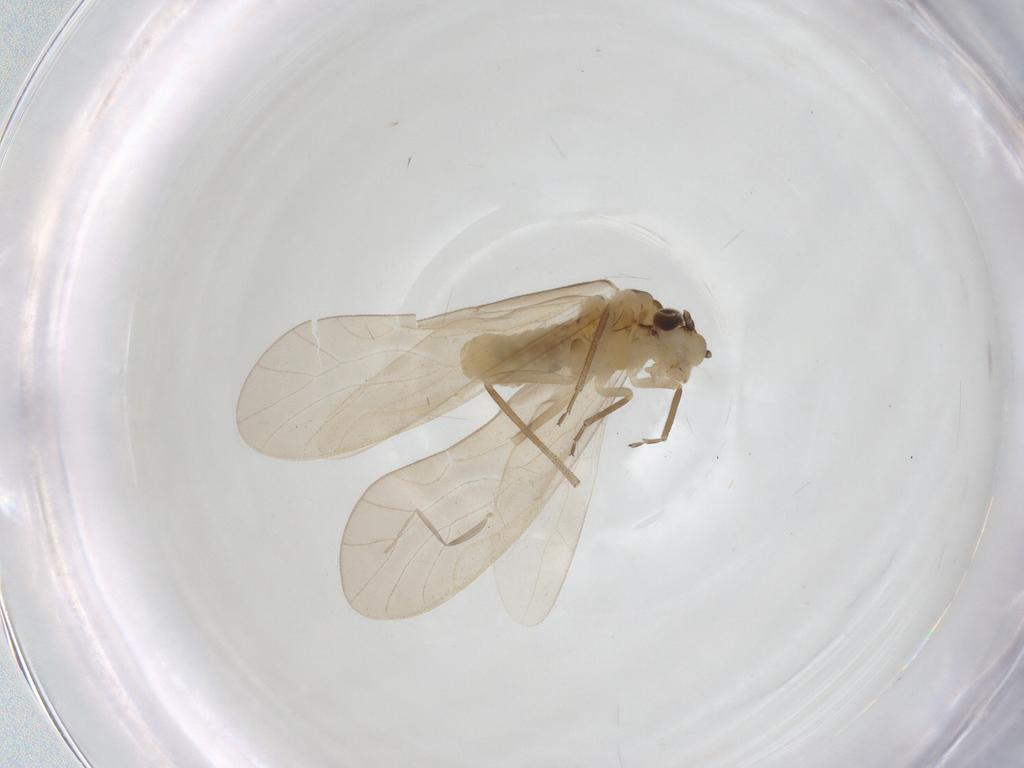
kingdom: Animalia
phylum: Arthropoda
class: Insecta
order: Psocodea
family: Caeciliusidae
